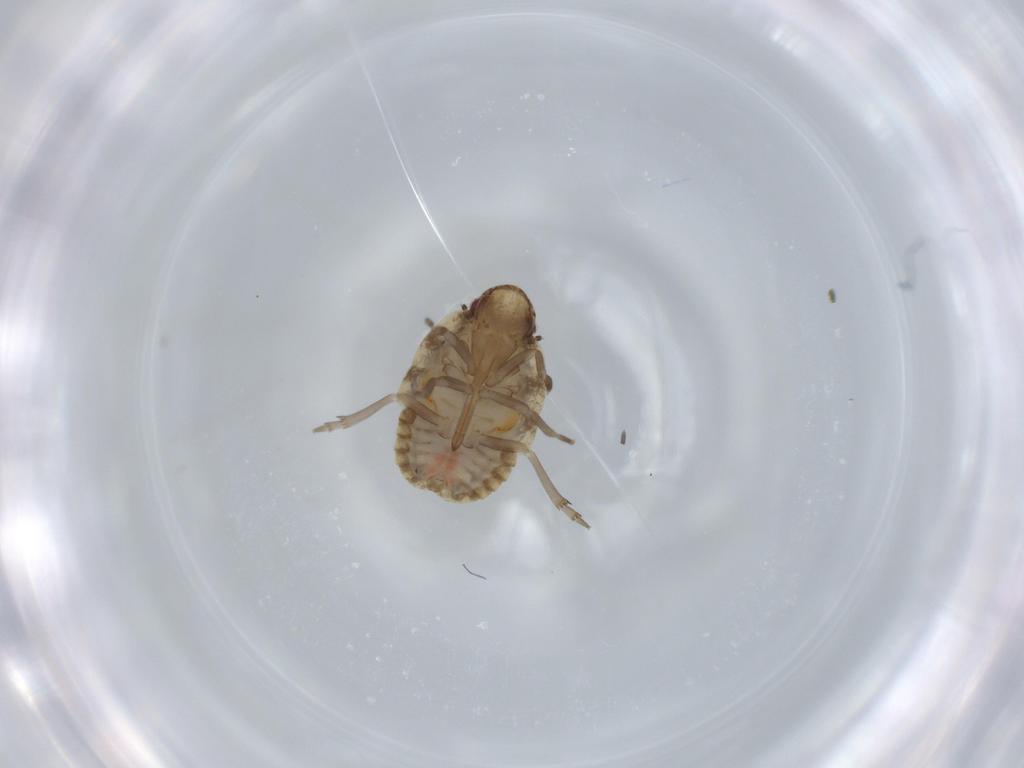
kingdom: Animalia
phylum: Arthropoda
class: Insecta
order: Hemiptera
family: Flatidae
